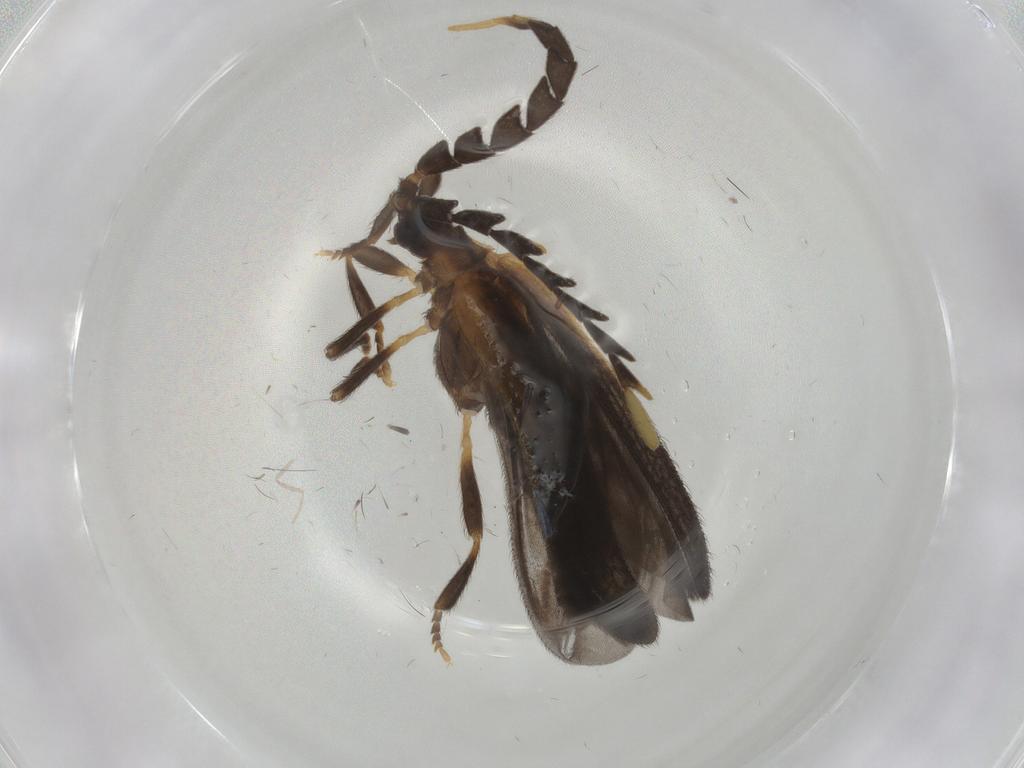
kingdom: Animalia
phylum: Arthropoda
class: Insecta
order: Coleoptera
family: Lycidae
